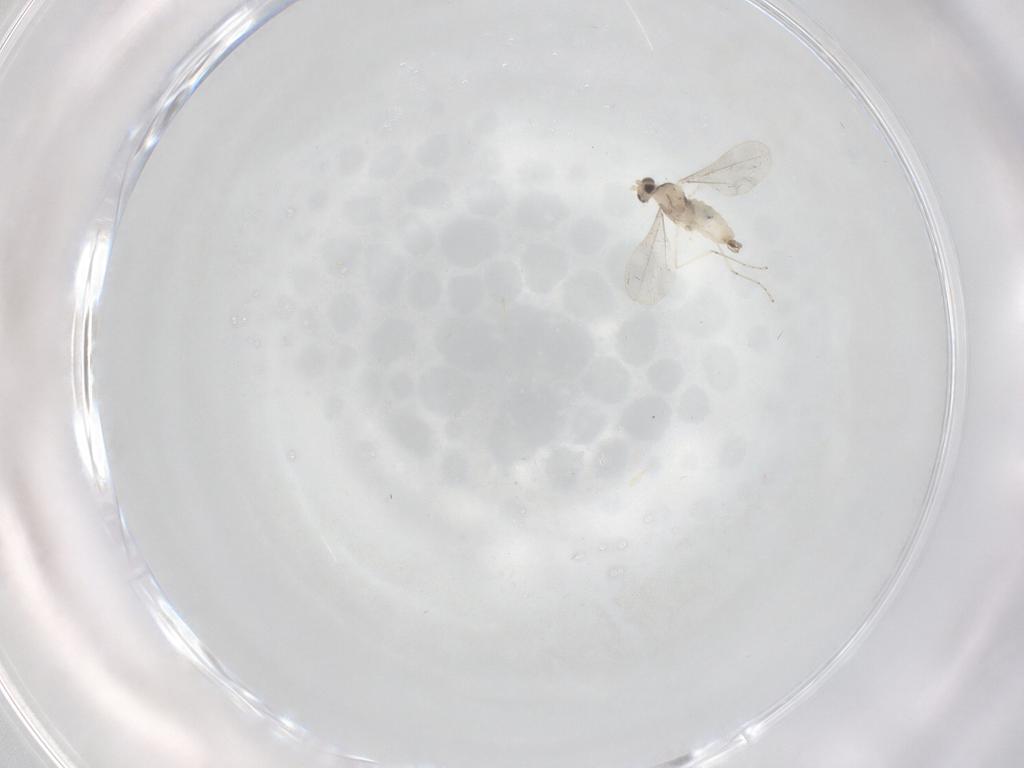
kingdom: Animalia
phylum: Arthropoda
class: Insecta
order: Diptera
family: Cecidomyiidae
